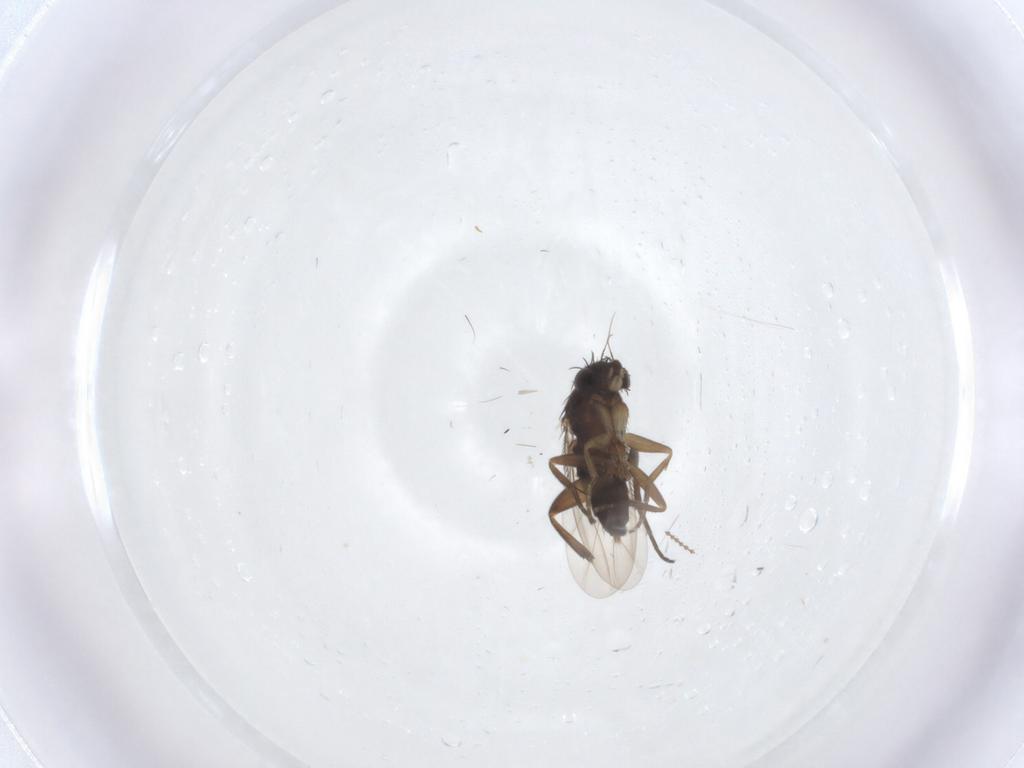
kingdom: Animalia
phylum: Arthropoda
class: Insecta
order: Diptera
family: Phoridae
